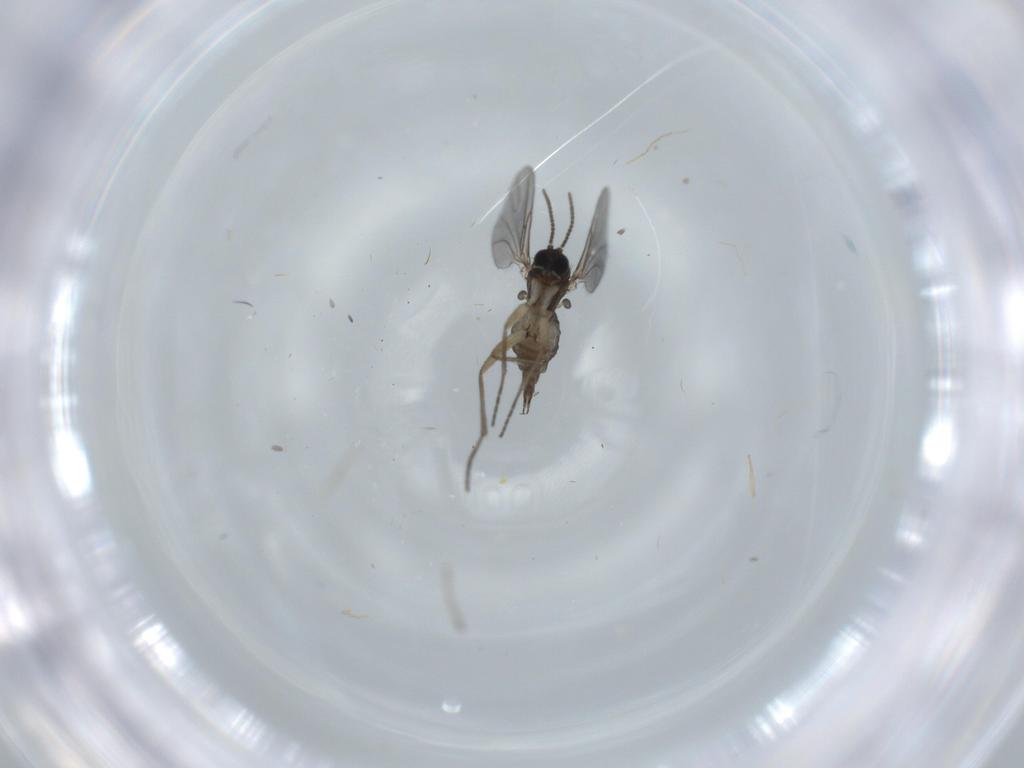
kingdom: Animalia
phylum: Arthropoda
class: Insecta
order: Diptera
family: Sciaridae
